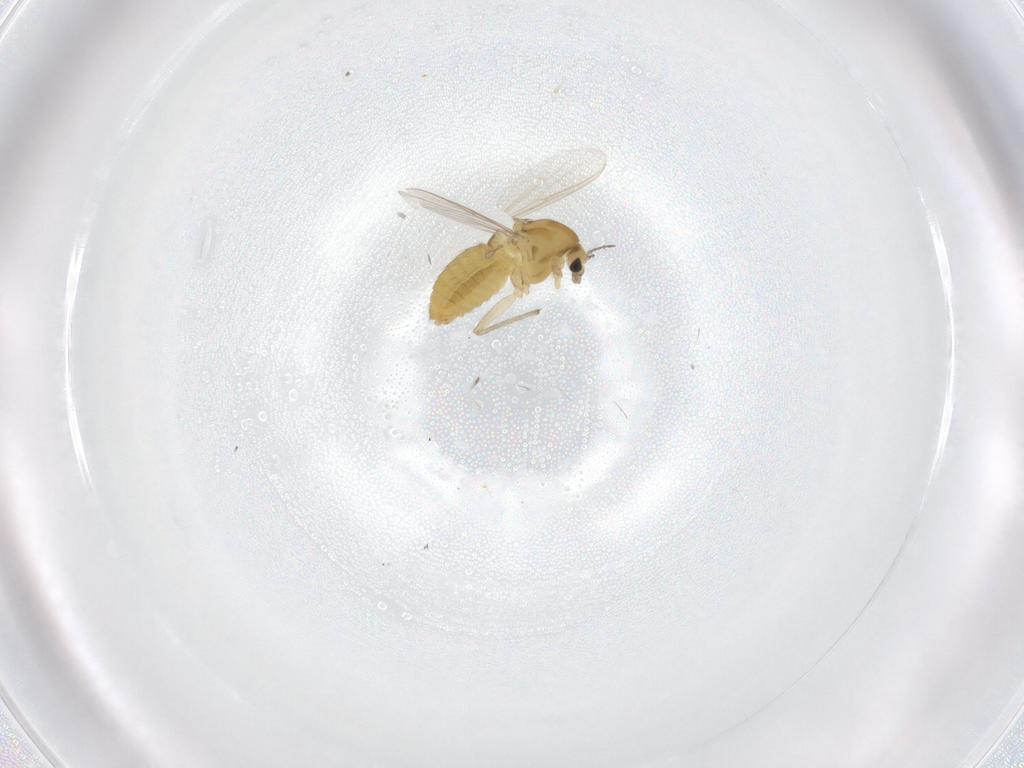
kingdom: Animalia
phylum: Arthropoda
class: Insecta
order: Diptera
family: Chironomidae
